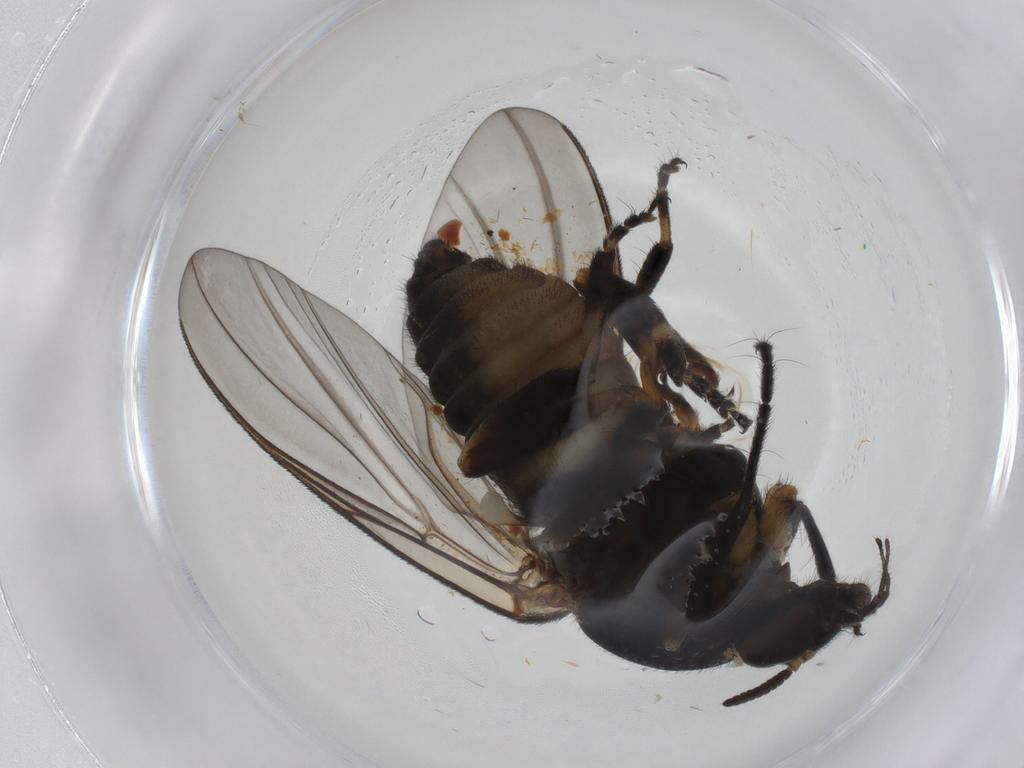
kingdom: Animalia
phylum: Arthropoda
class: Insecta
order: Diptera
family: Simuliidae
